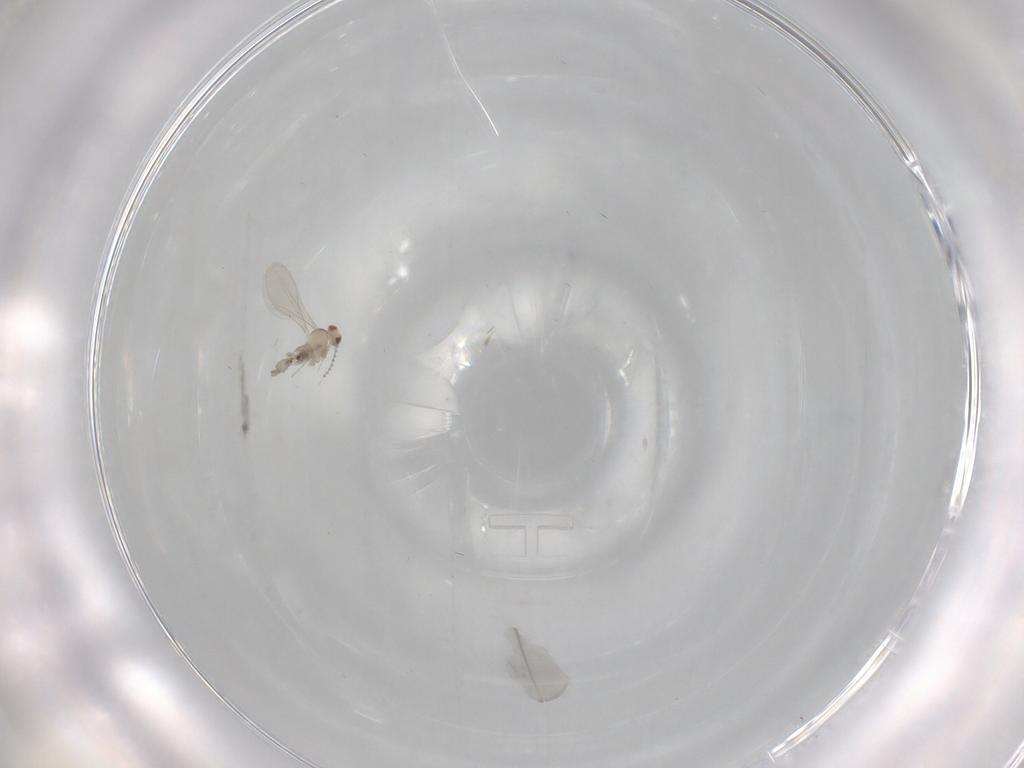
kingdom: Animalia
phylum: Arthropoda
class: Insecta
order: Diptera
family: Cecidomyiidae
